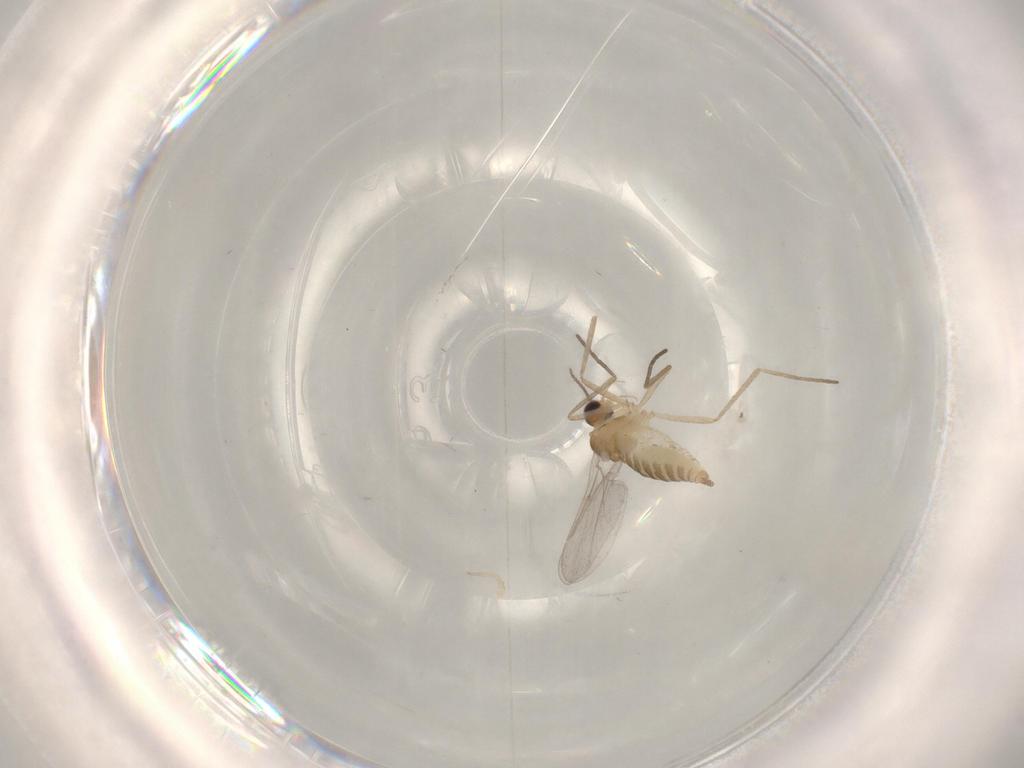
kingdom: Animalia
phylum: Arthropoda
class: Insecta
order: Diptera
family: Cecidomyiidae
